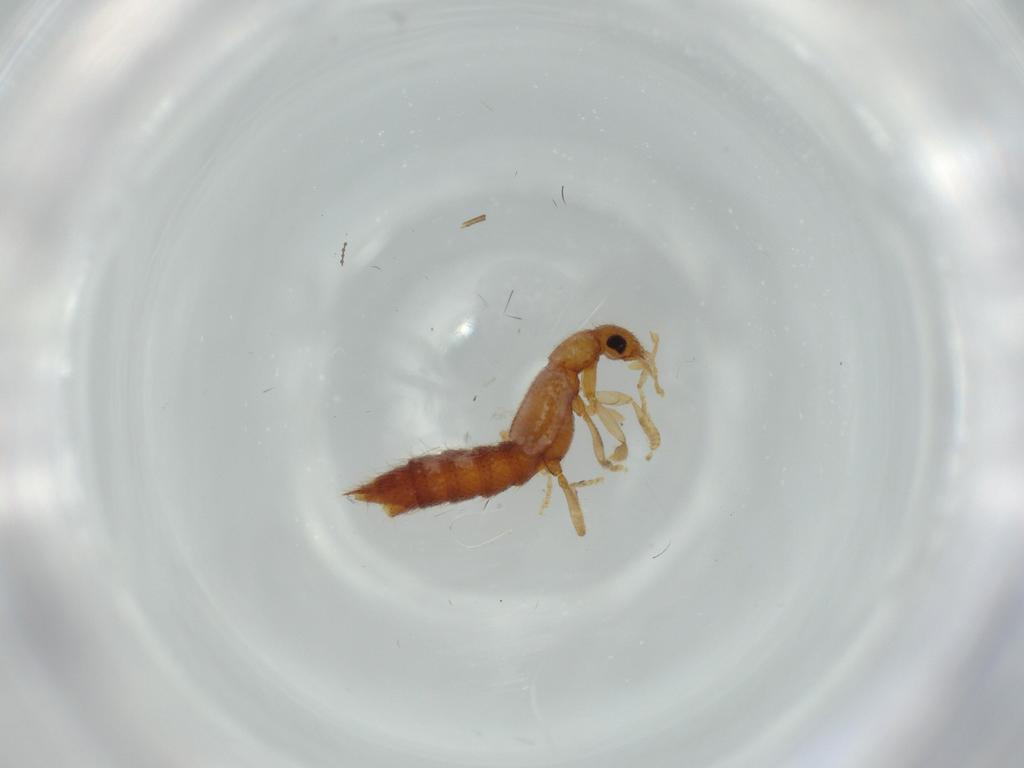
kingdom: Animalia
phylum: Arthropoda
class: Insecta
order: Coleoptera
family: Staphylinidae
